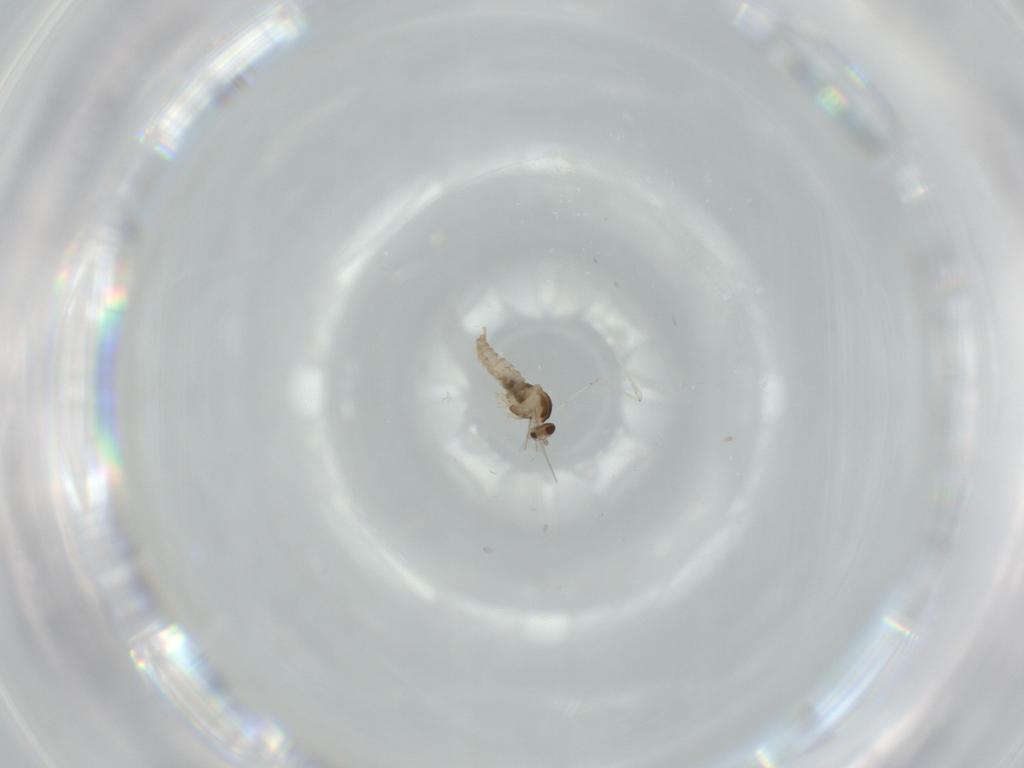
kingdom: Animalia
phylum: Arthropoda
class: Insecta
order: Diptera
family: Cecidomyiidae
